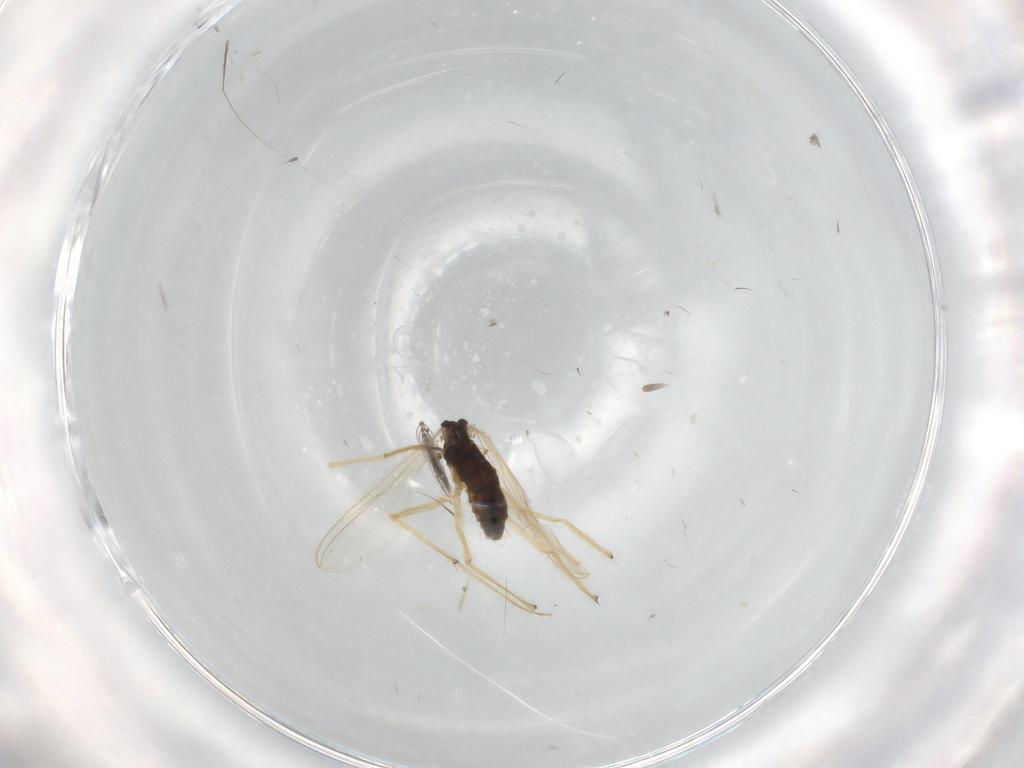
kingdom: Animalia
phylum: Arthropoda
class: Insecta
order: Diptera
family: Chironomidae
